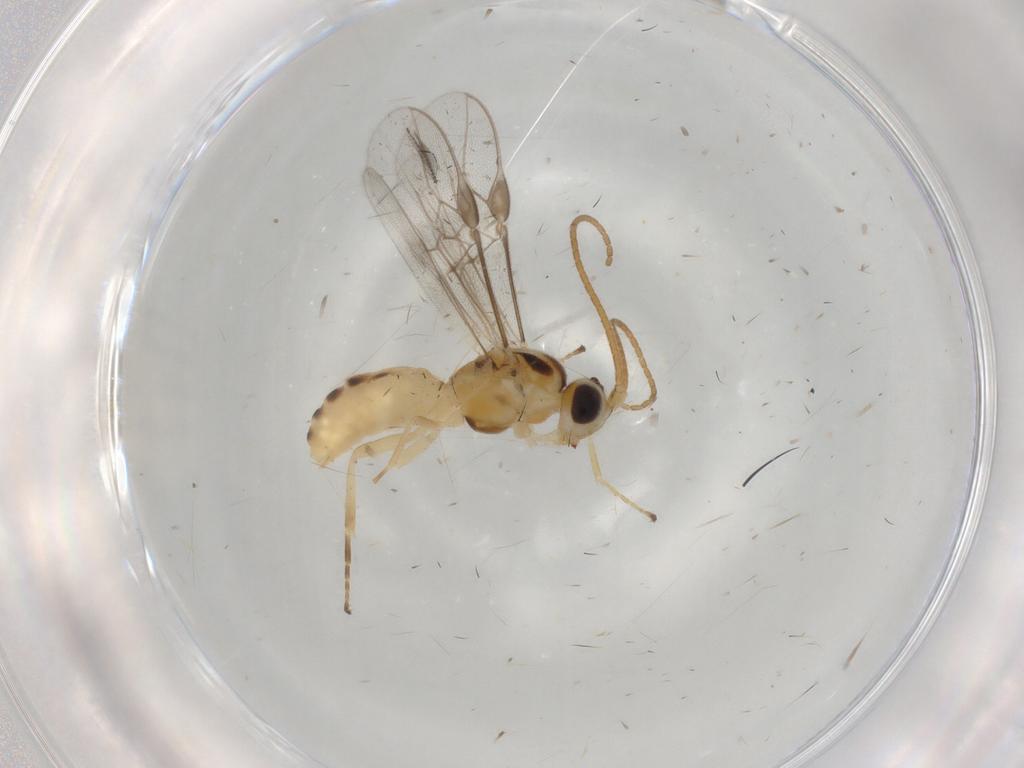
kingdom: Animalia
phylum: Arthropoda
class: Insecta
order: Hymenoptera
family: Braconidae
